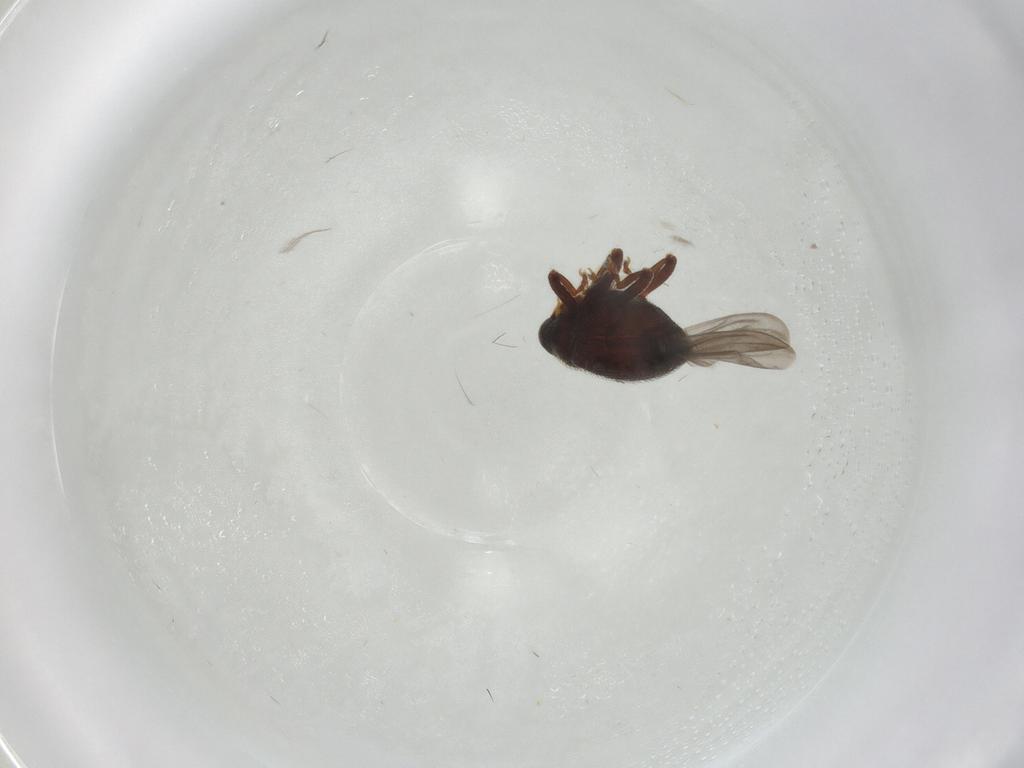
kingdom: Animalia
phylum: Arthropoda
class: Insecta
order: Coleoptera
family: Curculionidae
